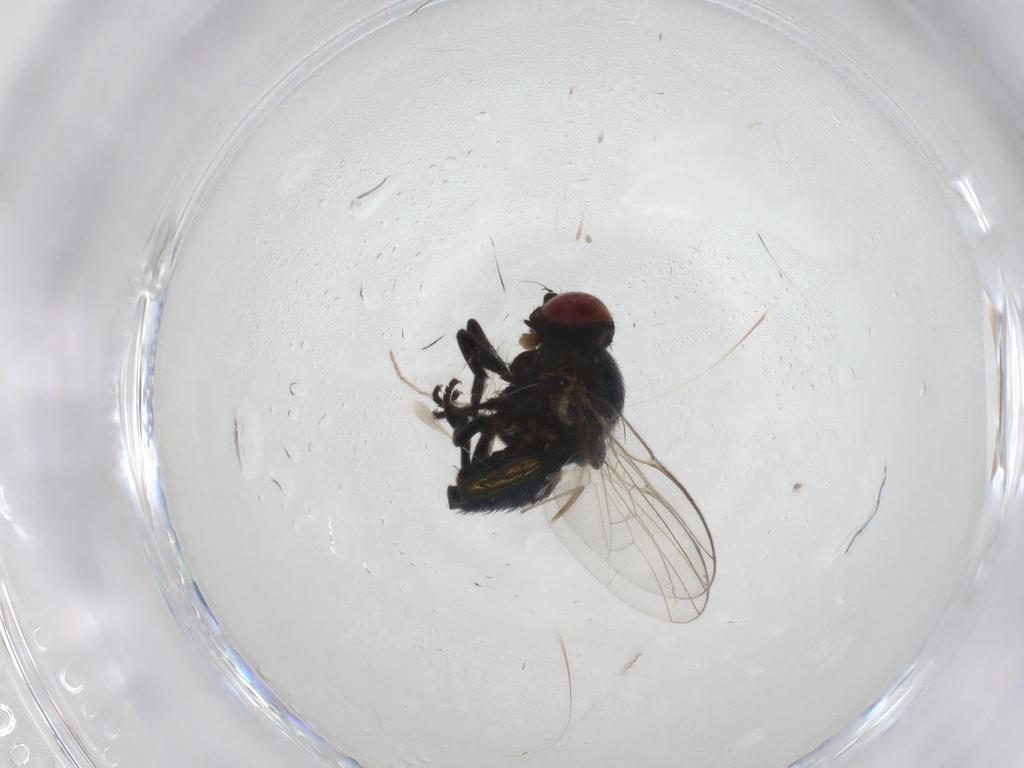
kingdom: Animalia
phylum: Arthropoda
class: Insecta
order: Diptera
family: Agromyzidae
